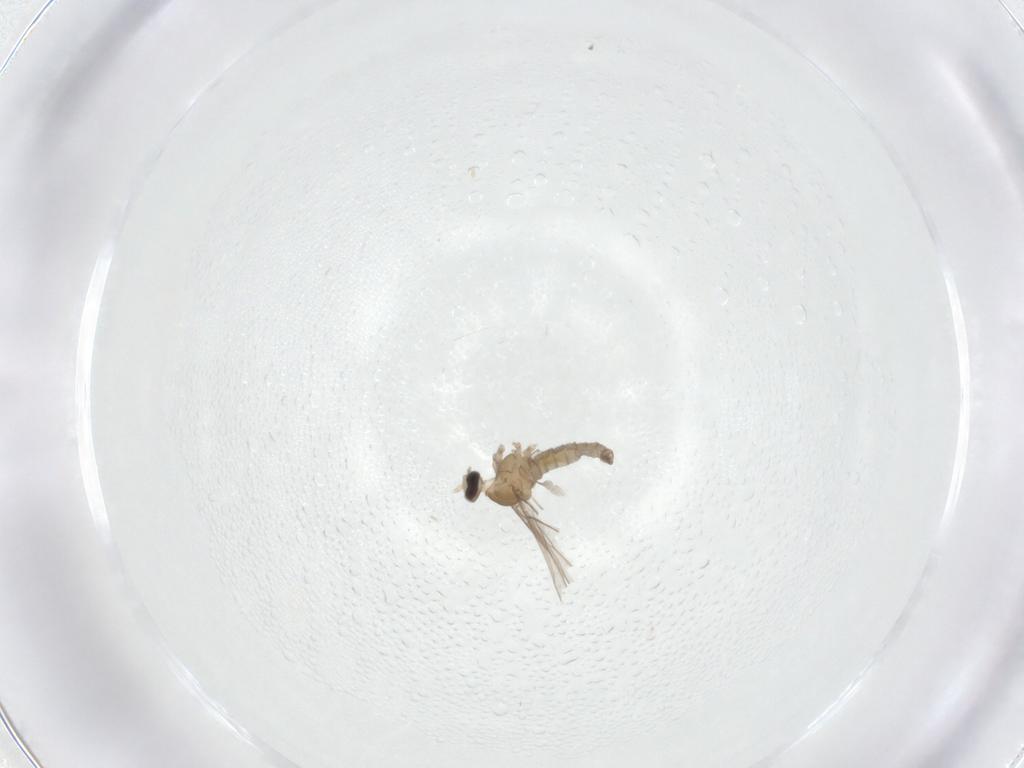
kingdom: Animalia
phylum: Arthropoda
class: Insecta
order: Diptera
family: Cecidomyiidae
